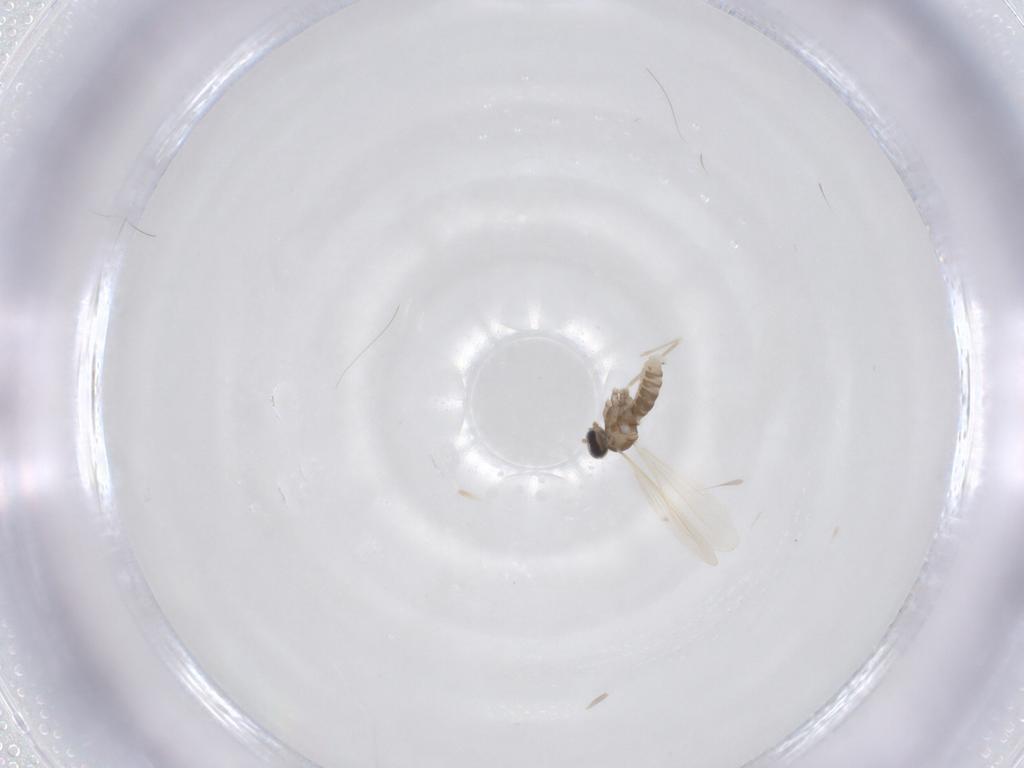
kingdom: Animalia
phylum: Arthropoda
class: Insecta
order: Diptera
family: Cecidomyiidae
